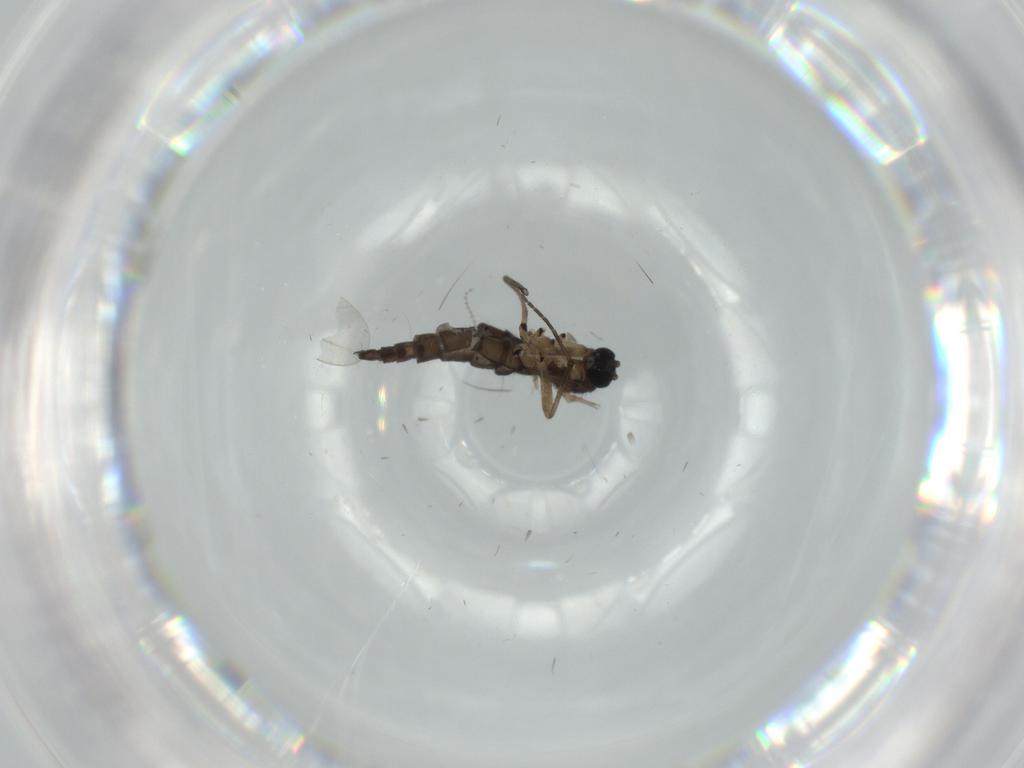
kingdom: Animalia
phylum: Arthropoda
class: Insecta
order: Diptera
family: Sciaridae
